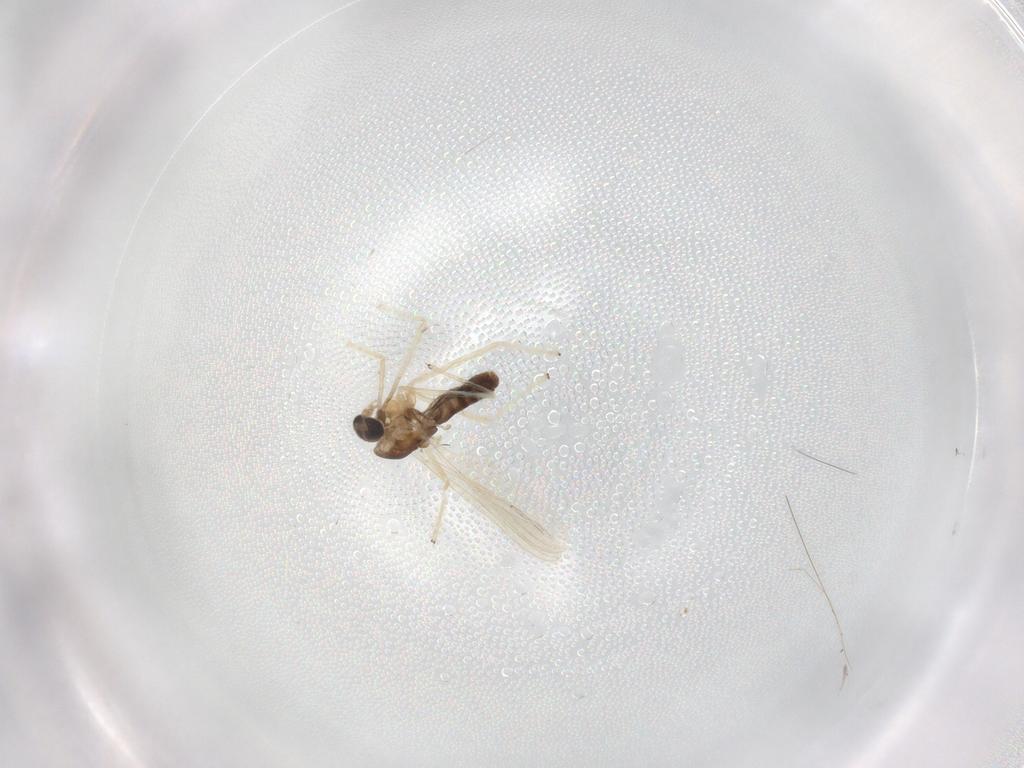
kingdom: Animalia
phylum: Arthropoda
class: Insecta
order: Diptera
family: Chironomidae
